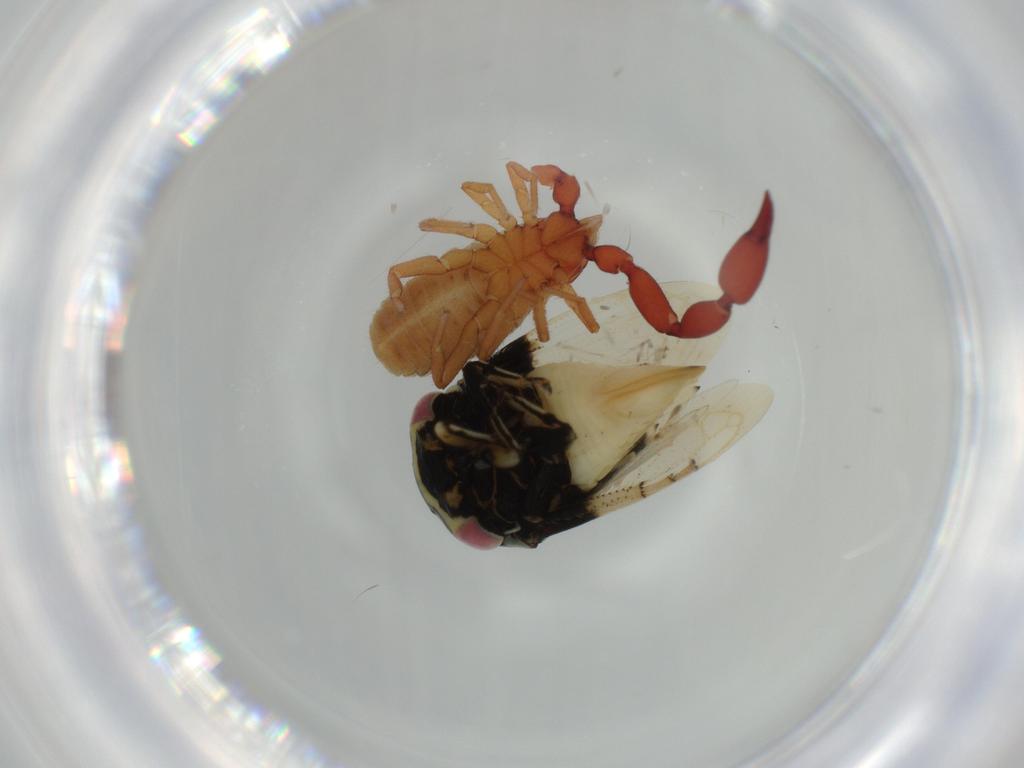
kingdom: Animalia
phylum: Arthropoda
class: Insecta
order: Hemiptera
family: Membracidae
